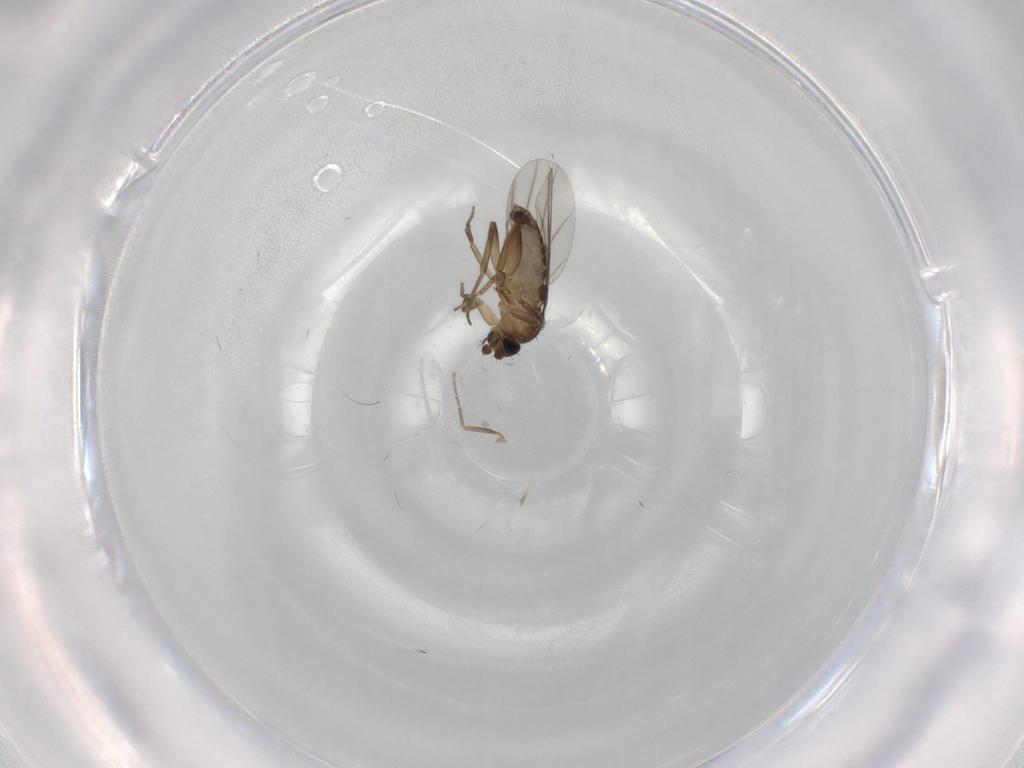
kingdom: Animalia
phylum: Arthropoda
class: Insecta
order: Diptera
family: Phoridae
